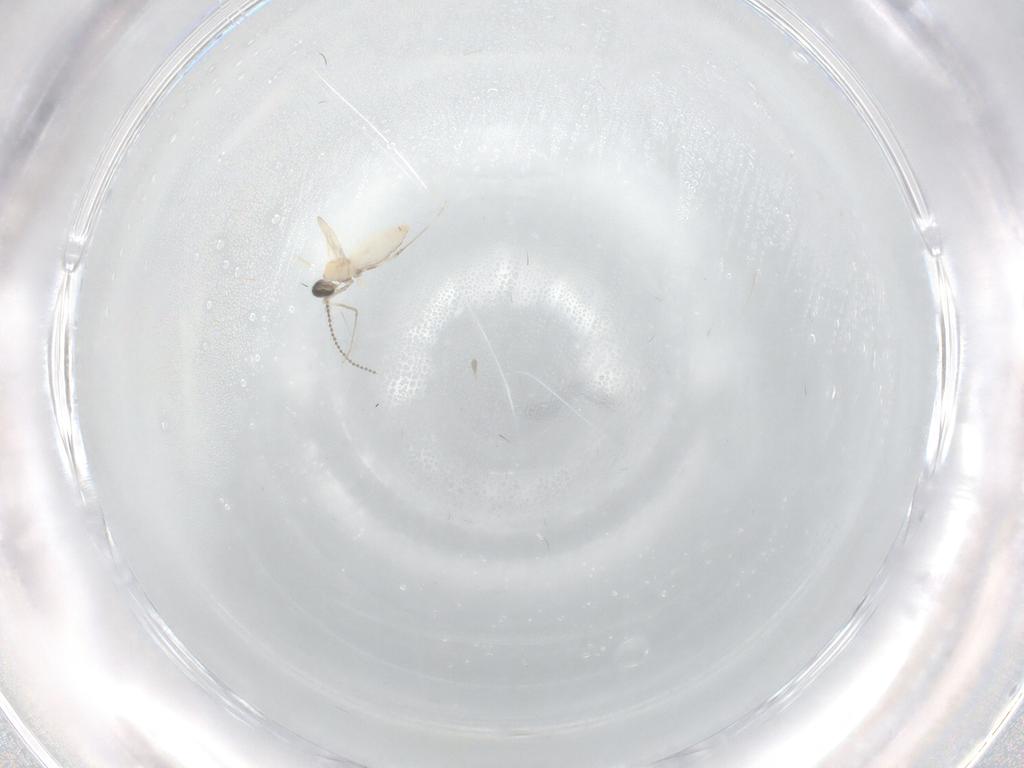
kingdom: Animalia
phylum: Arthropoda
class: Insecta
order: Diptera
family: Cecidomyiidae
